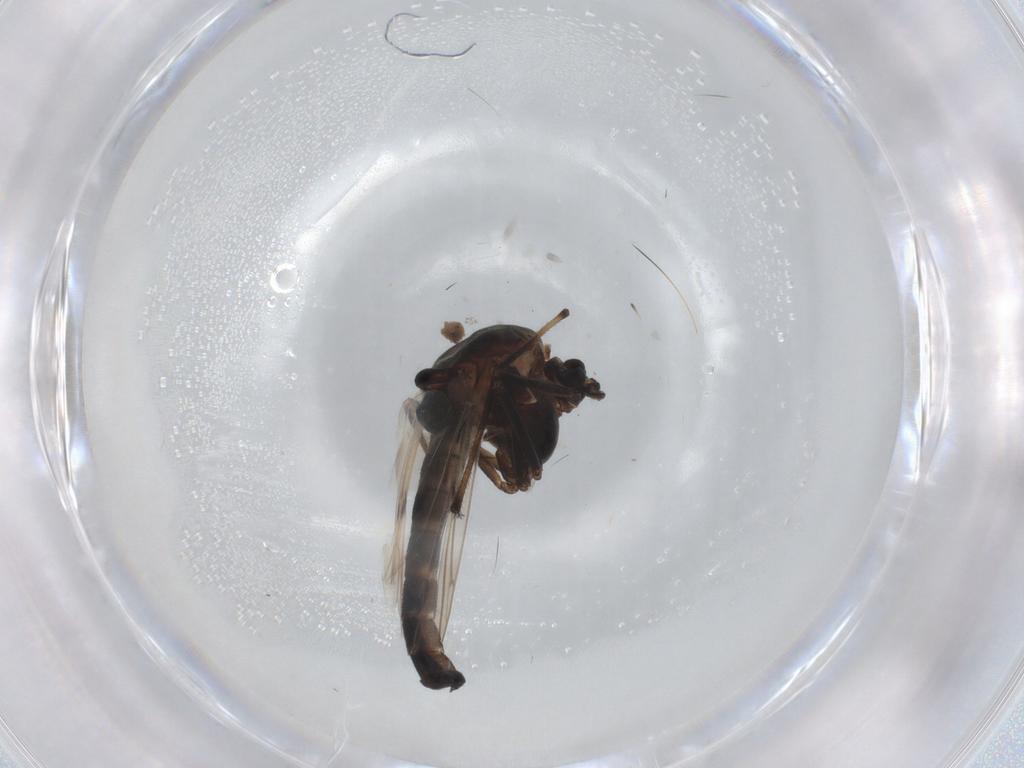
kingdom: Animalia
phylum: Arthropoda
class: Insecta
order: Diptera
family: Chironomidae
